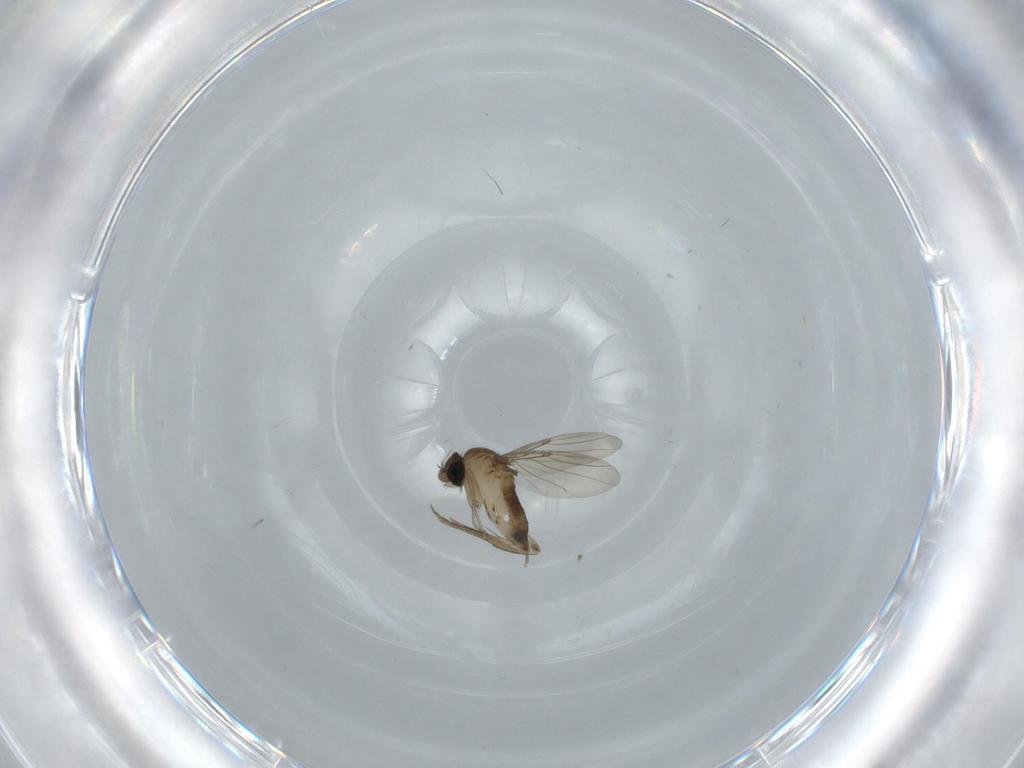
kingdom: Animalia
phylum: Arthropoda
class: Insecta
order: Diptera
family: Phoridae
